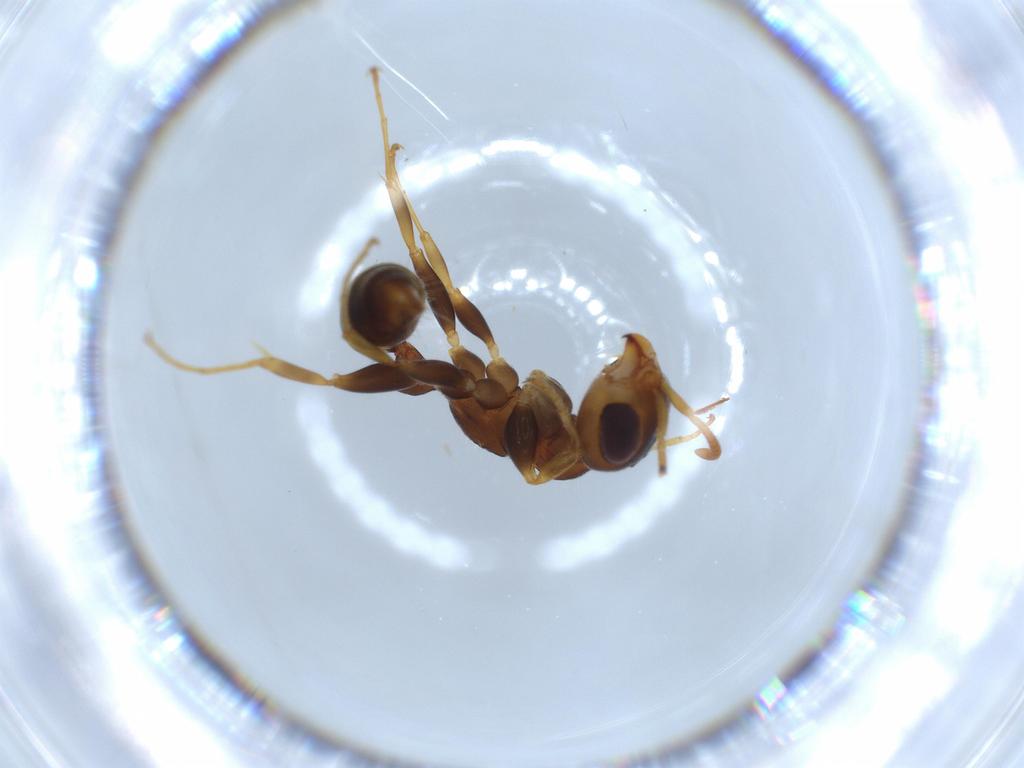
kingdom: Animalia
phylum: Arthropoda
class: Insecta
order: Hymenoptera
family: Formicidae
